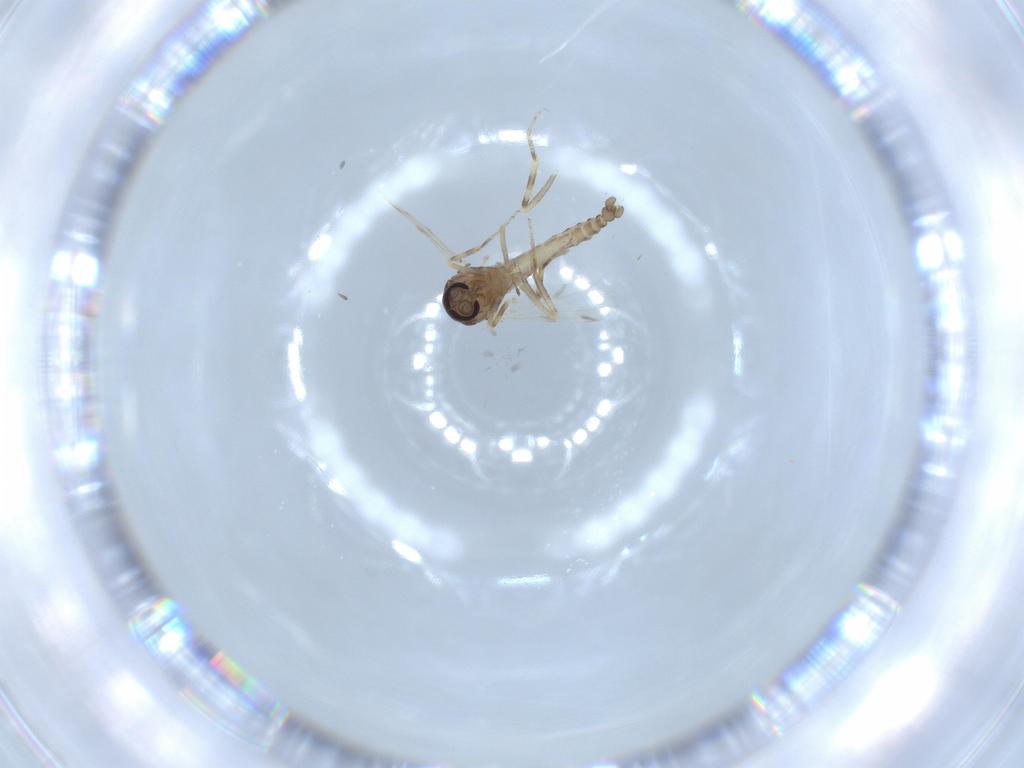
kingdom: Animalia
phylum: Arthropoda
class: Insecta
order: Diptera
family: Ceratopogonidae
